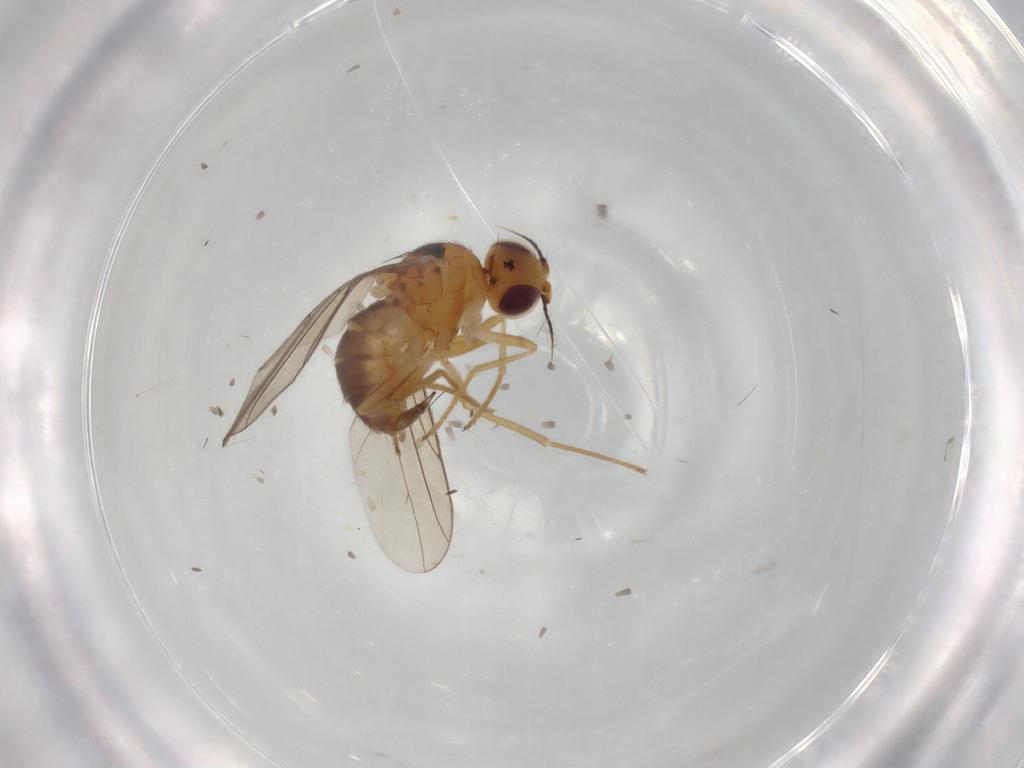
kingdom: Animalia
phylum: Arthropoda
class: Insecta
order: Diptera
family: Chloropidae
